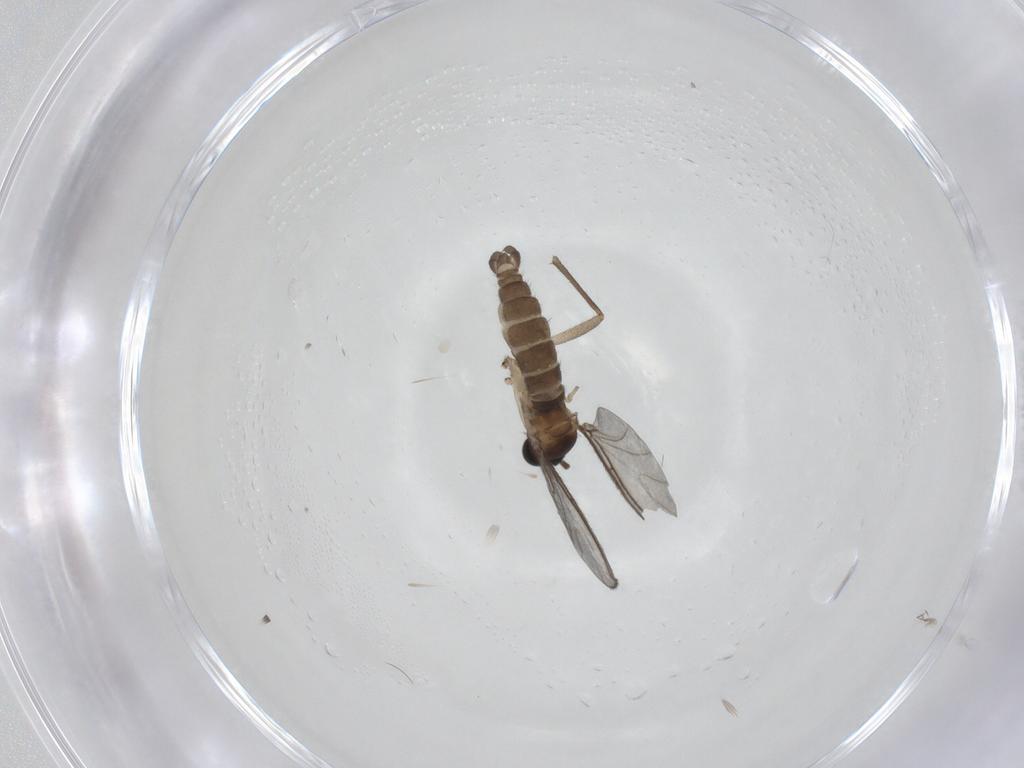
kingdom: Animalia
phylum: Arthropoda
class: Insecta
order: Diptera
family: Sciaridae
